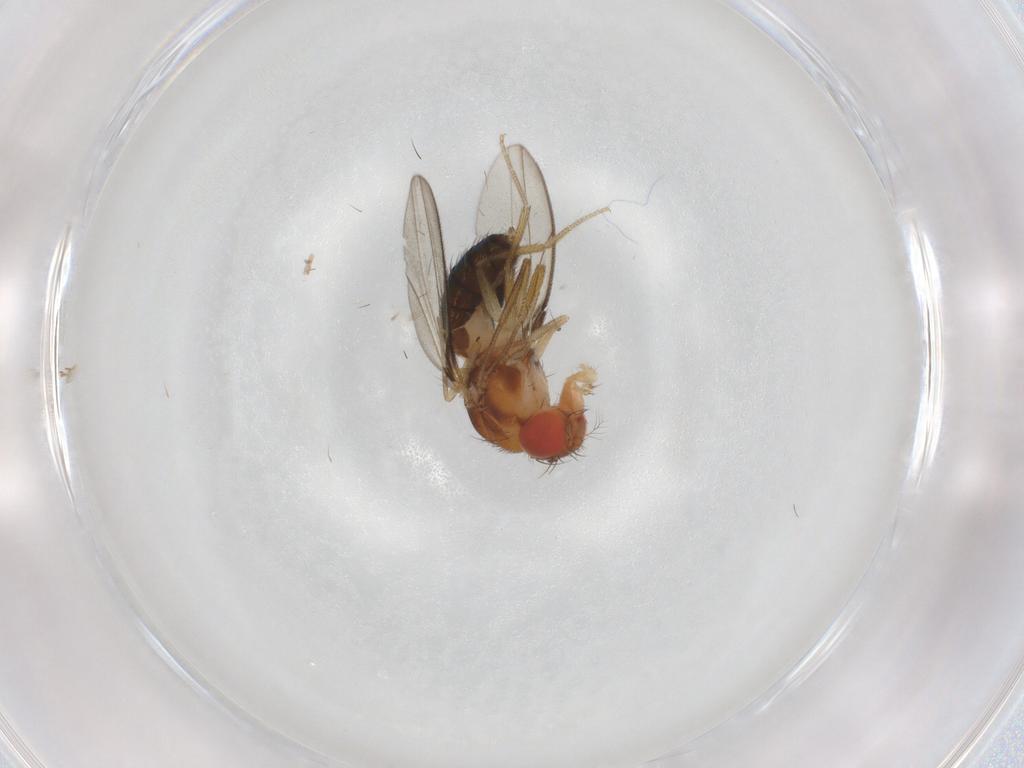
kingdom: Animalia
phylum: Arthropoda
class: Insecta
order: Diptera
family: Drosophilidae
